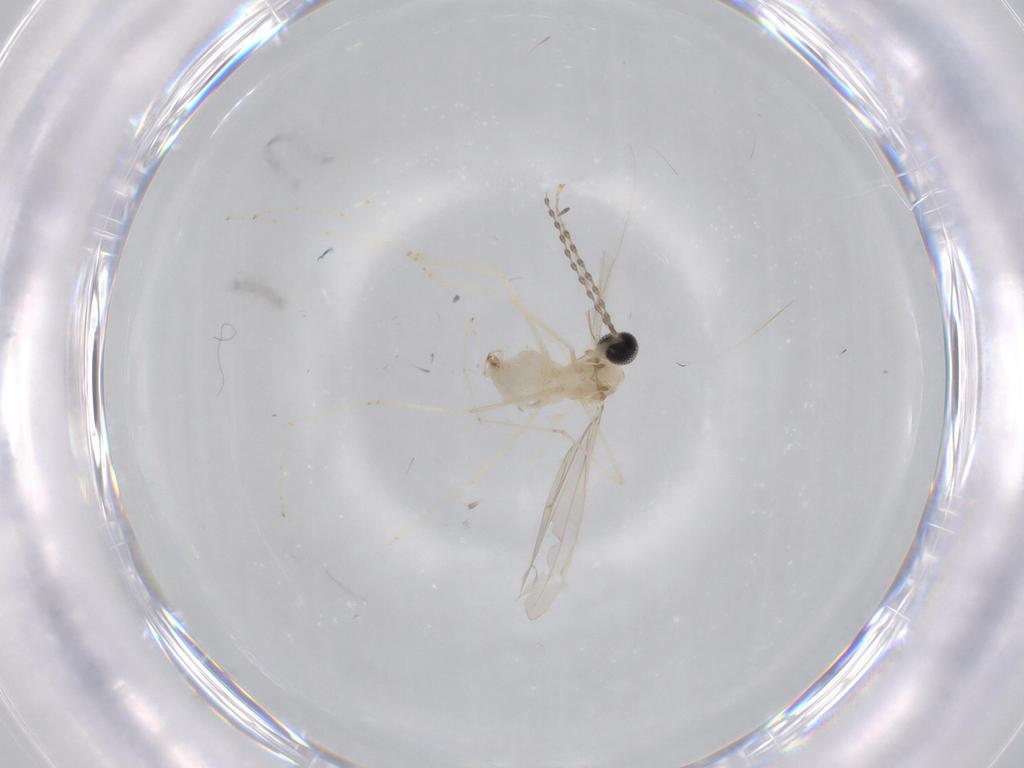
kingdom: Animalia
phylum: Arthropoda
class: Insecta
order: Diptera
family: Cecidomyiidae
